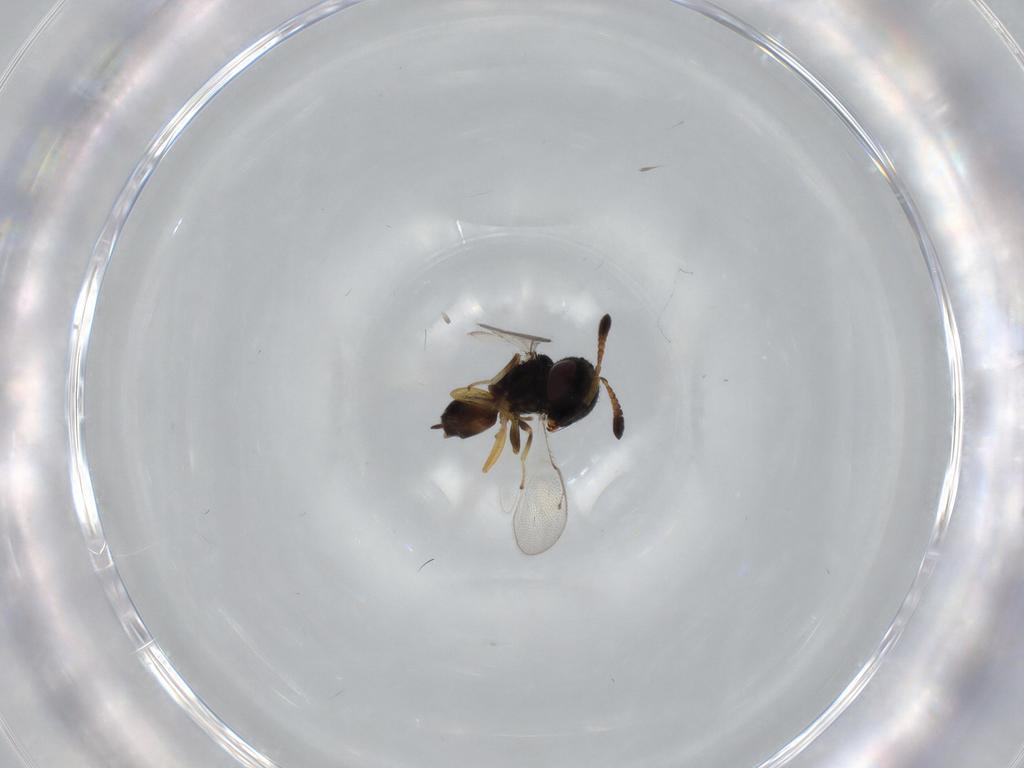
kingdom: Animalia
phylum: Arthropoda
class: Insecta
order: Hymenoptera
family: Pteromalidae
